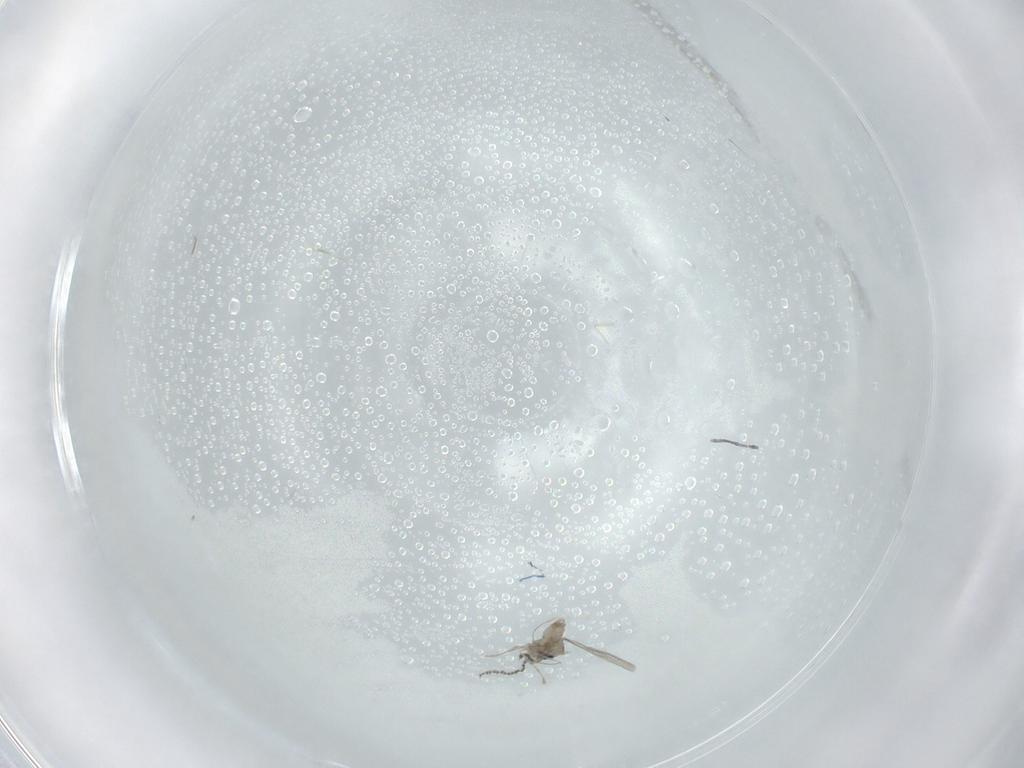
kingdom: Animalia
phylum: Arthropoda
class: Insecta
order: Diptera
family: Cecidomyiidae
